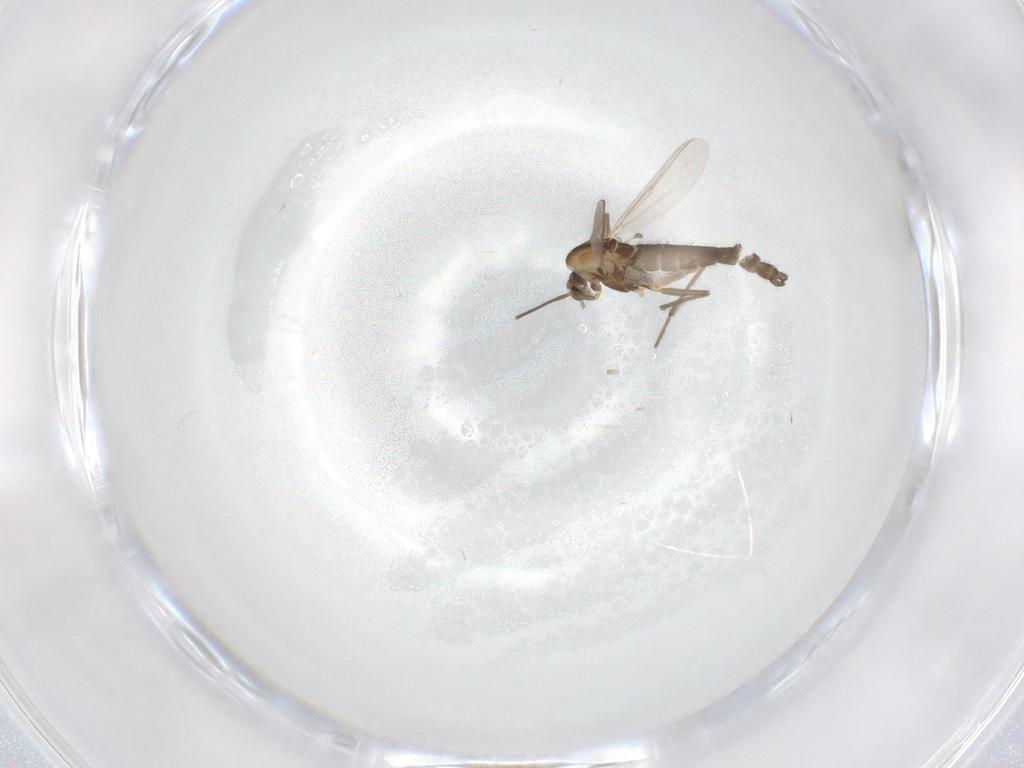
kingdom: Animalia
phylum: Arthropoda
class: Insecta
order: Diptera
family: Chironomidae
